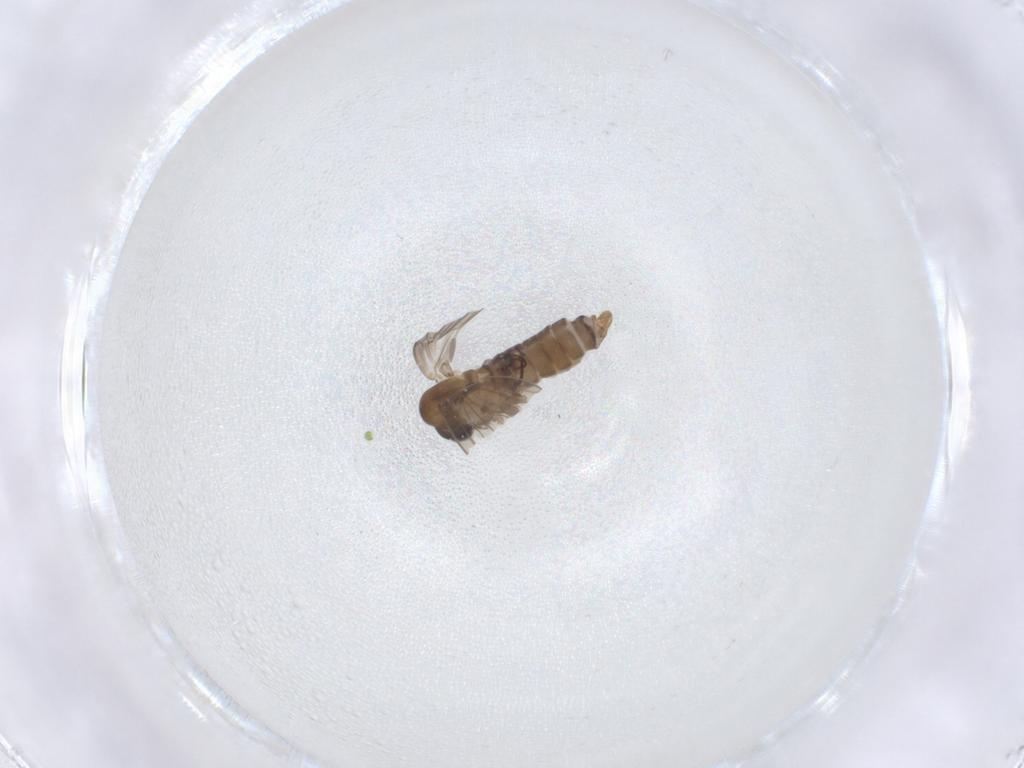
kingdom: Animalia
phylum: Arthropoda
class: Insecta
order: Diptera
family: Psychodidae
